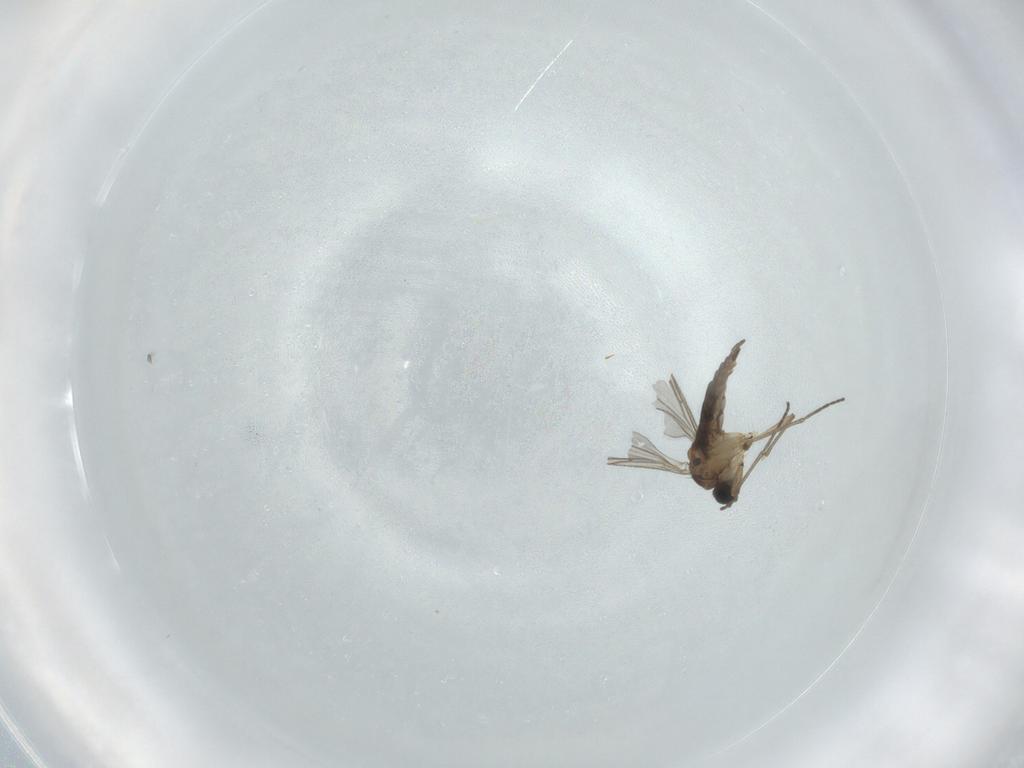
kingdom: Animalia
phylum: Arthropoda
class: Insecta
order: Diptera
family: Sciaridae
